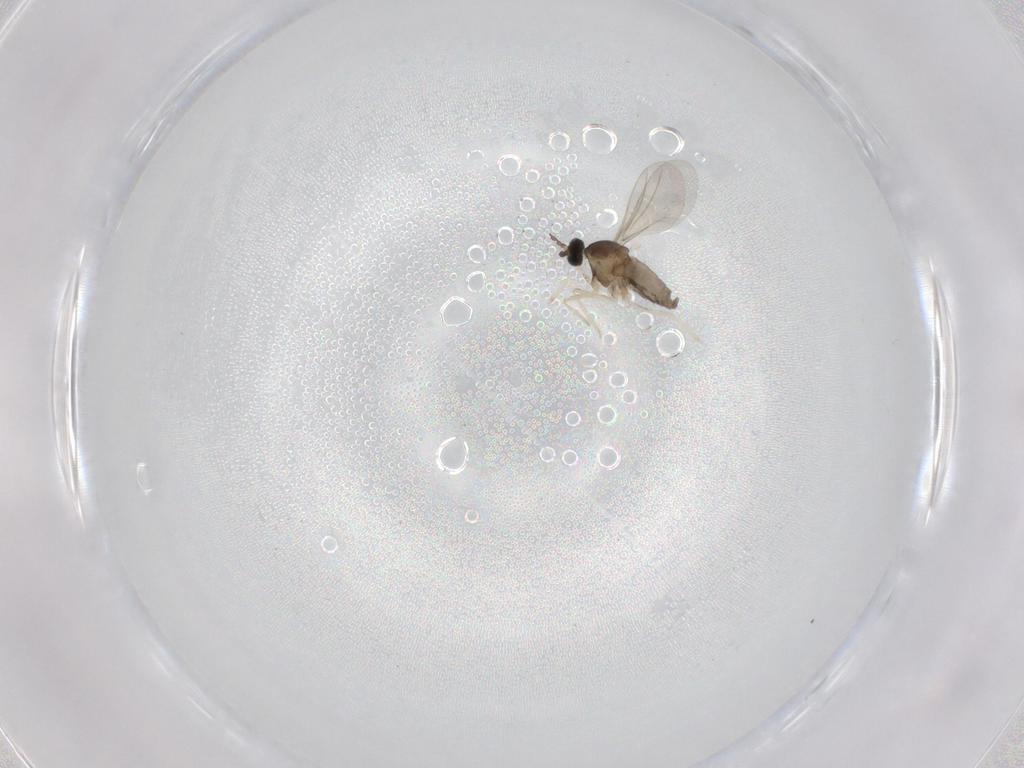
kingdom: Animalia
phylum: Arthropoda
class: Insecta
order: Diptera
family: Cecidomyiidae
